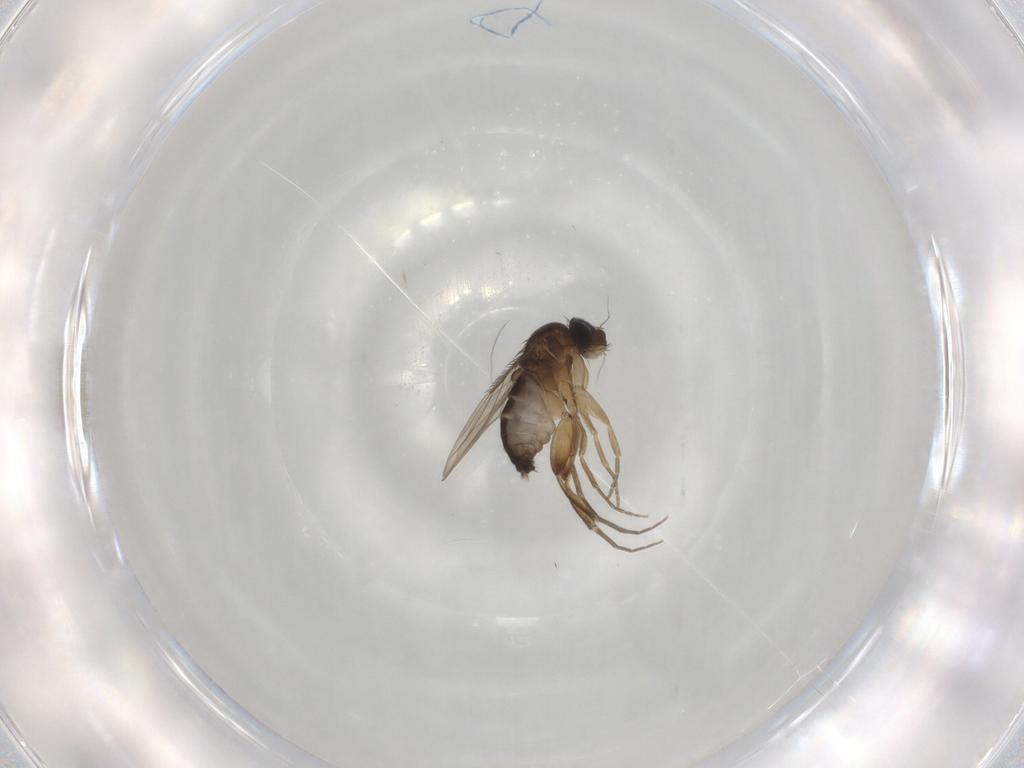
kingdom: Animalia
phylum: Arthropoda
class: Insecta
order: Diptera
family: Phoridae
